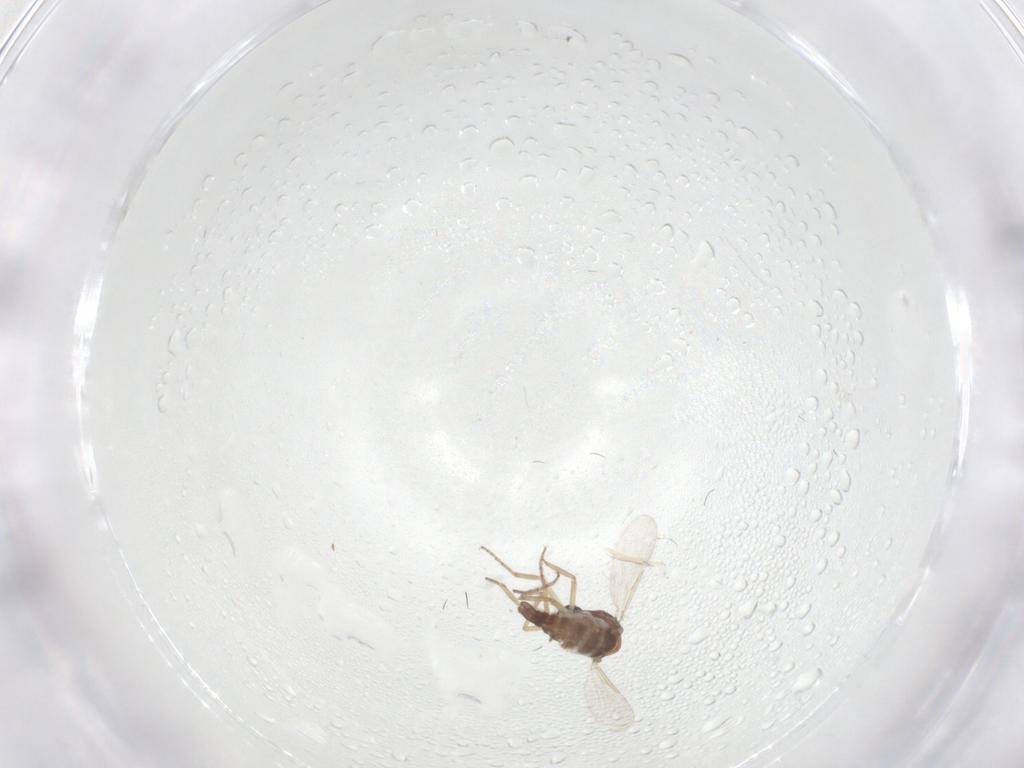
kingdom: Animalia
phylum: Arthropoda
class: Insecta
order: Diptera
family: Ceratopogonidae
